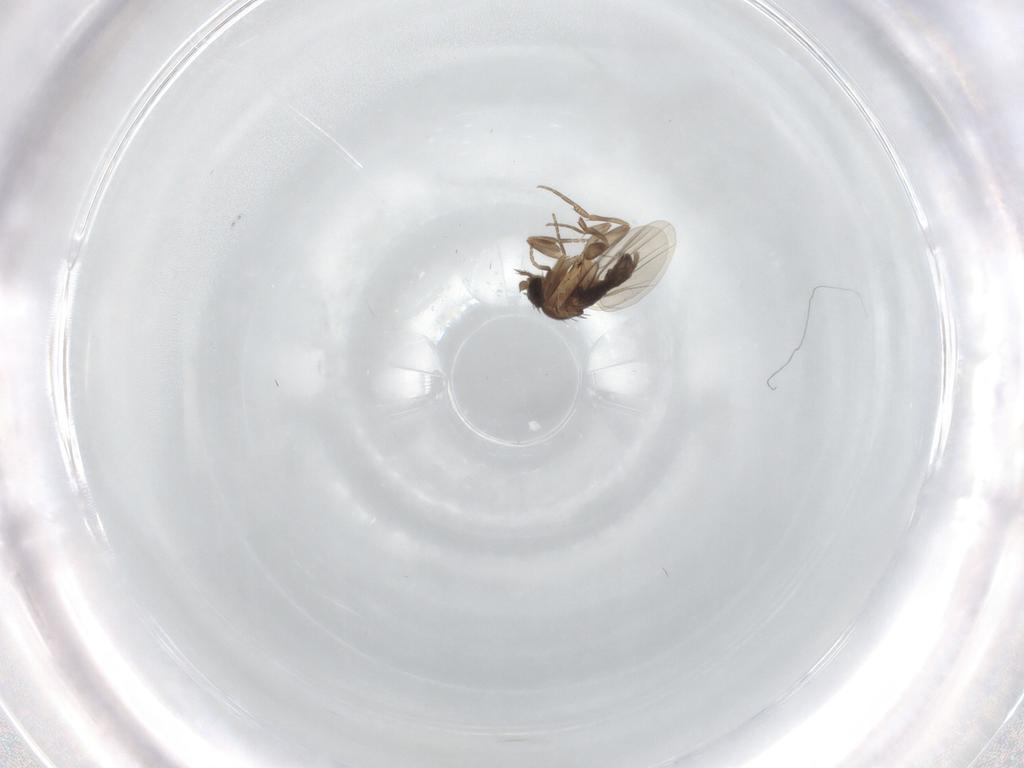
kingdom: Animalia
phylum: Arthropoda
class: Insecta
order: Diptera
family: Phoridae
